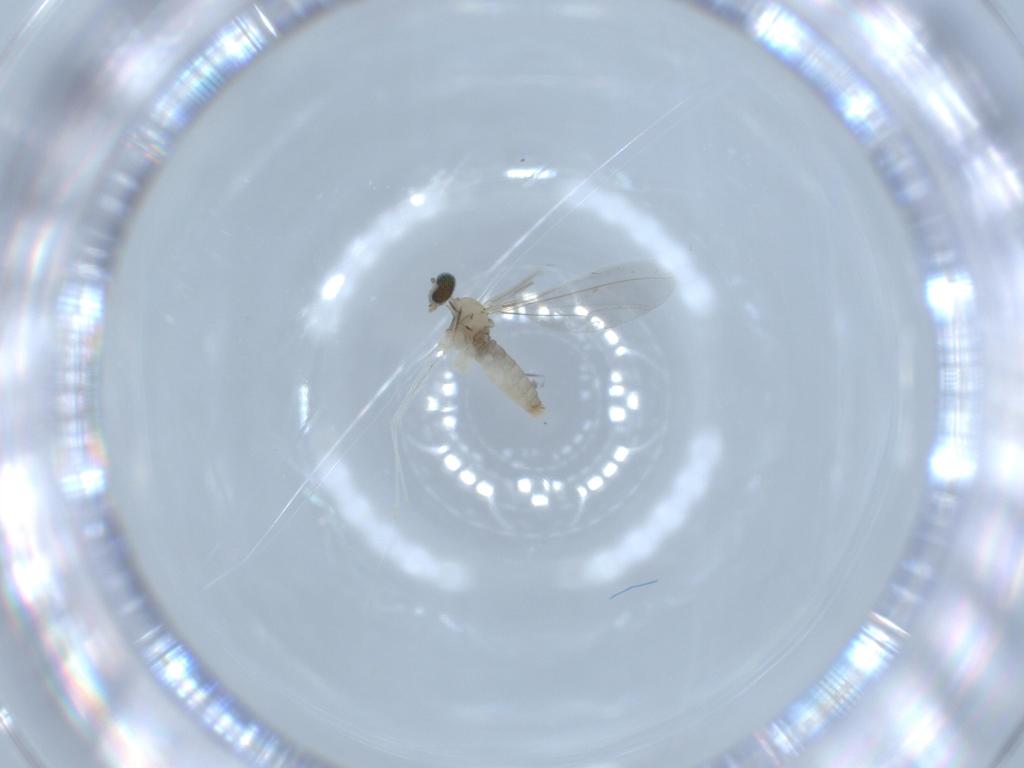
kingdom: Animalia
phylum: Arthropoda
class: Insecta
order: Diptera
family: Cecidomyiidae
